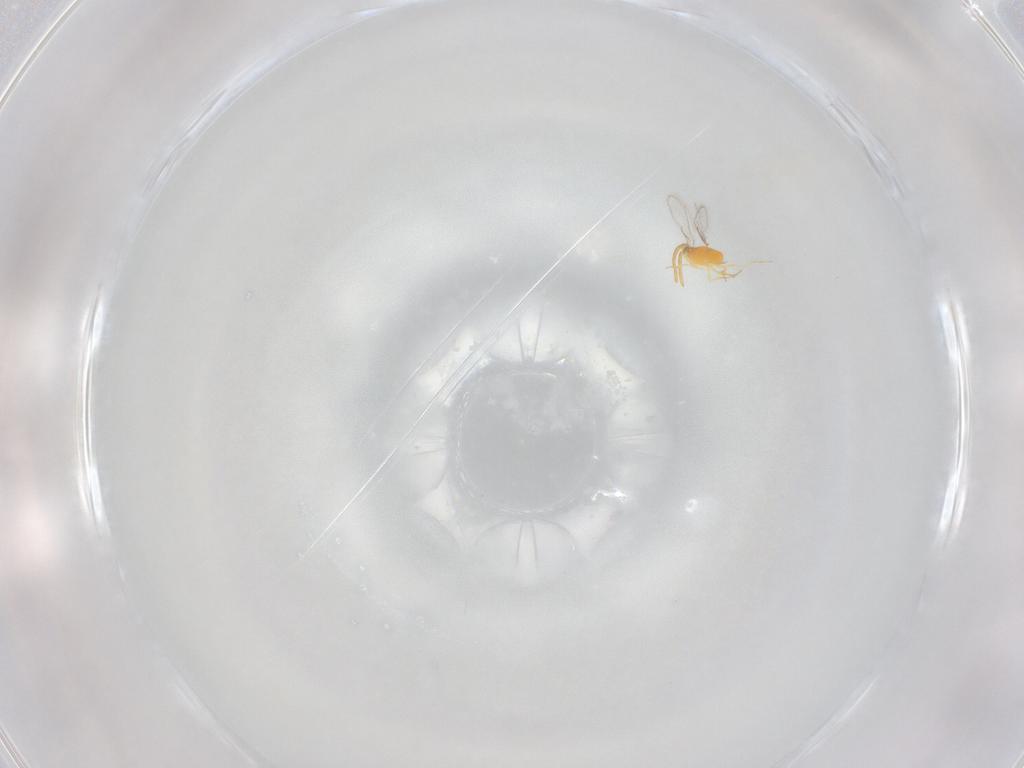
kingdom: Animalia
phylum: Arthropoda
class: Insecta
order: Hymenoptera
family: Aphelinidae
